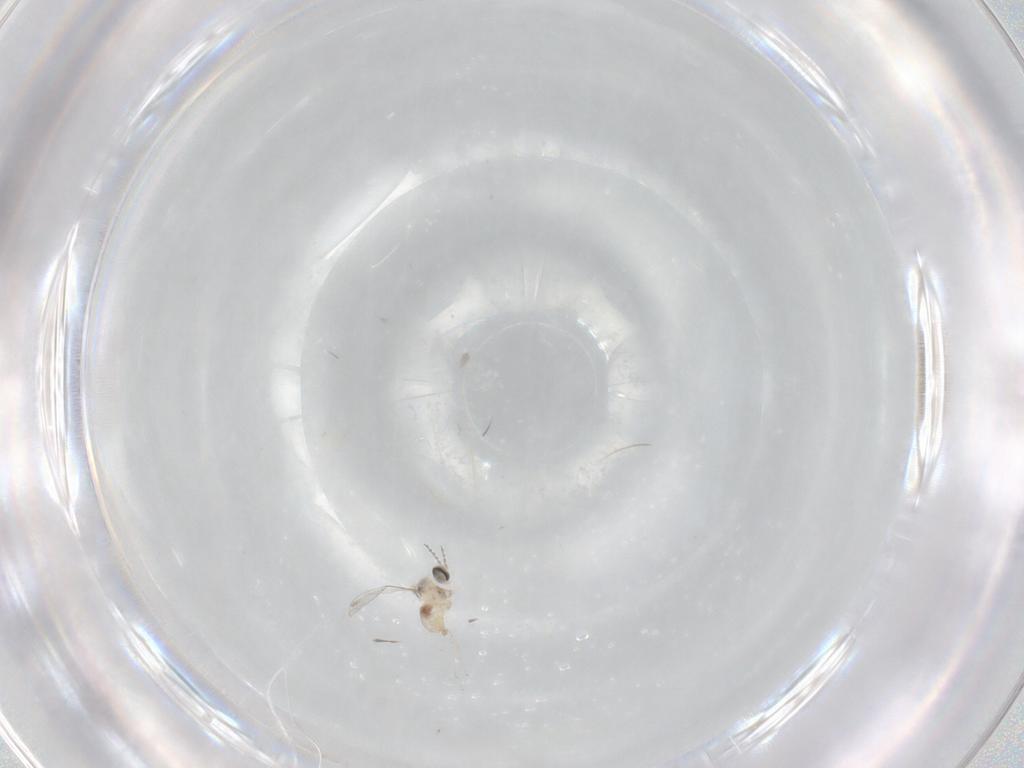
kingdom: Animalia
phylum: Arthropoda
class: Insecta
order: Diptera
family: Cecidomyiidae
